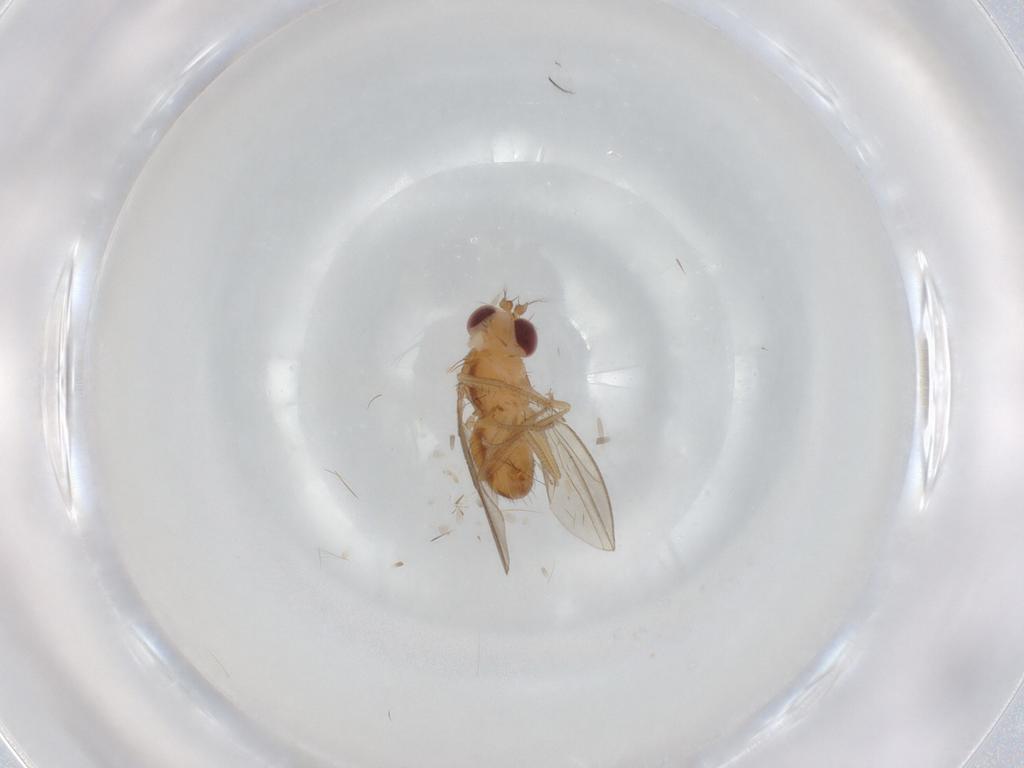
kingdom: Animalia
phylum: Arthropoda
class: Insecta
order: Diptera
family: Drosophilidae
